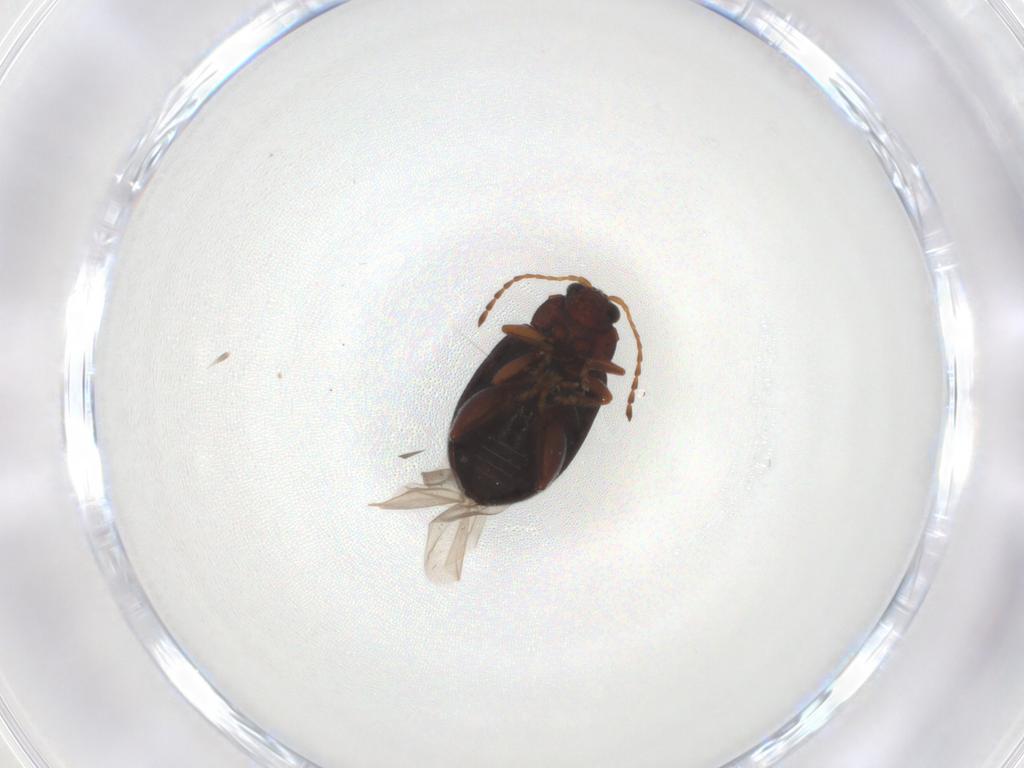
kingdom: Animalia
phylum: Arthropoda
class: Insecta
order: Coleoptera
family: Chrysomelidae
